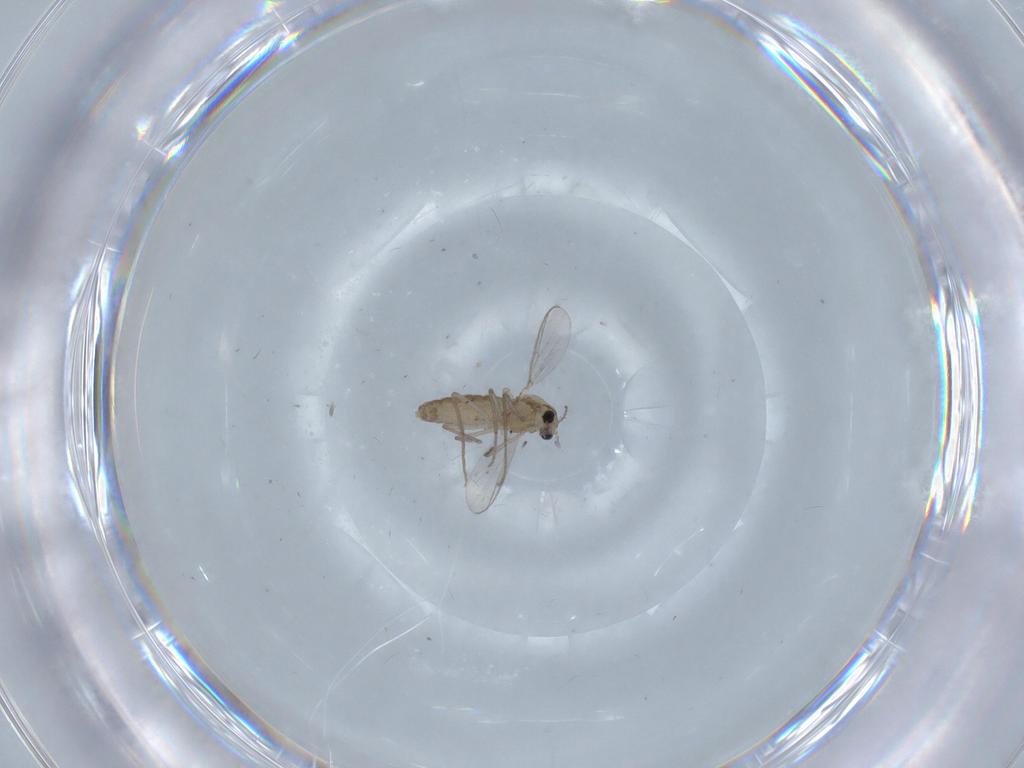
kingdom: Animalia
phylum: Arthropoda
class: Insecta
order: Diptera
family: Chironomidae
